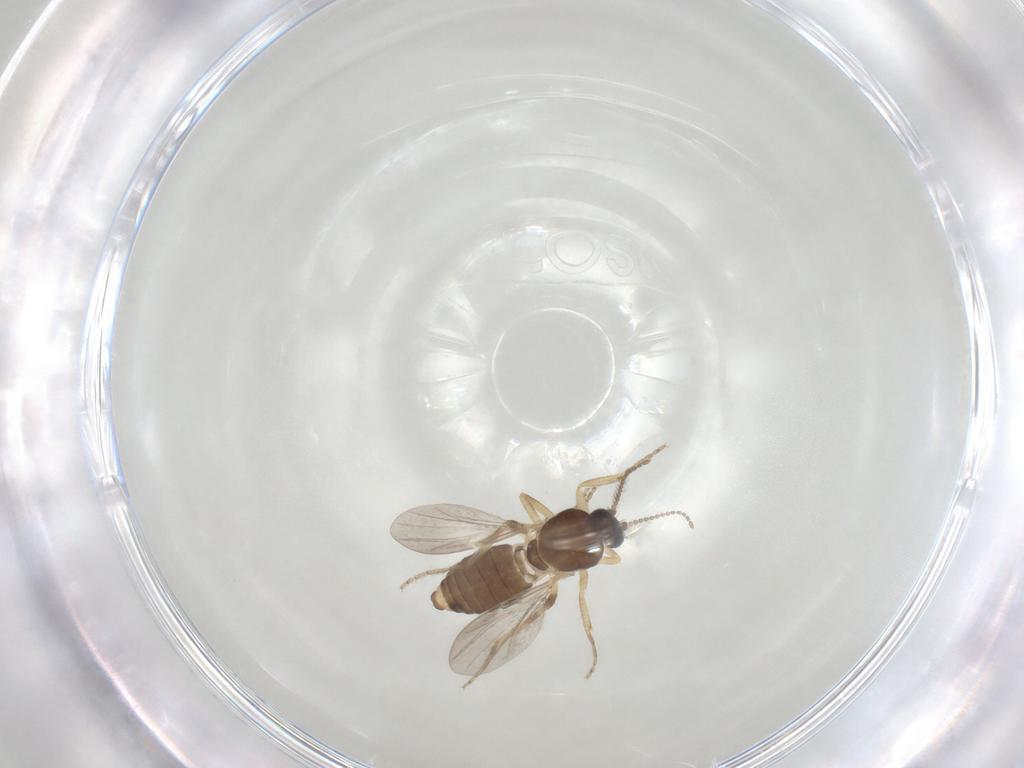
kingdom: Animalia
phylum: Arthropoda
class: Insecta
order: Diptera
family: Ceratopogonidae
